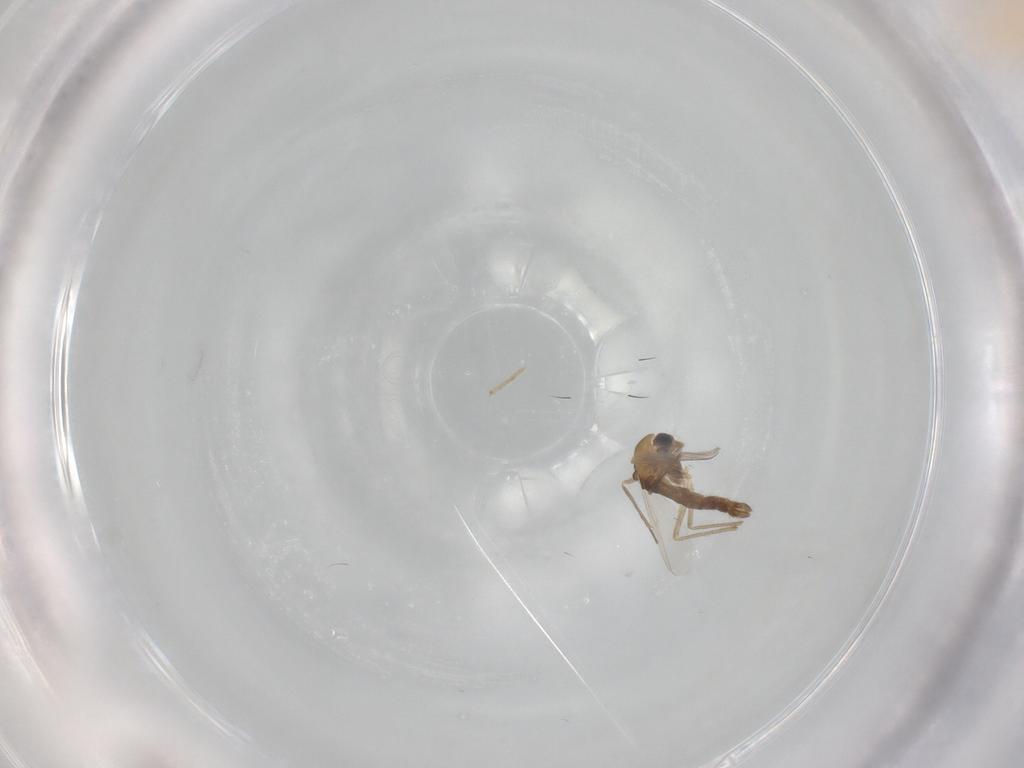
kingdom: Animalia
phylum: Arthropoda
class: Insecta
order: Diptera
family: Chironomidae
